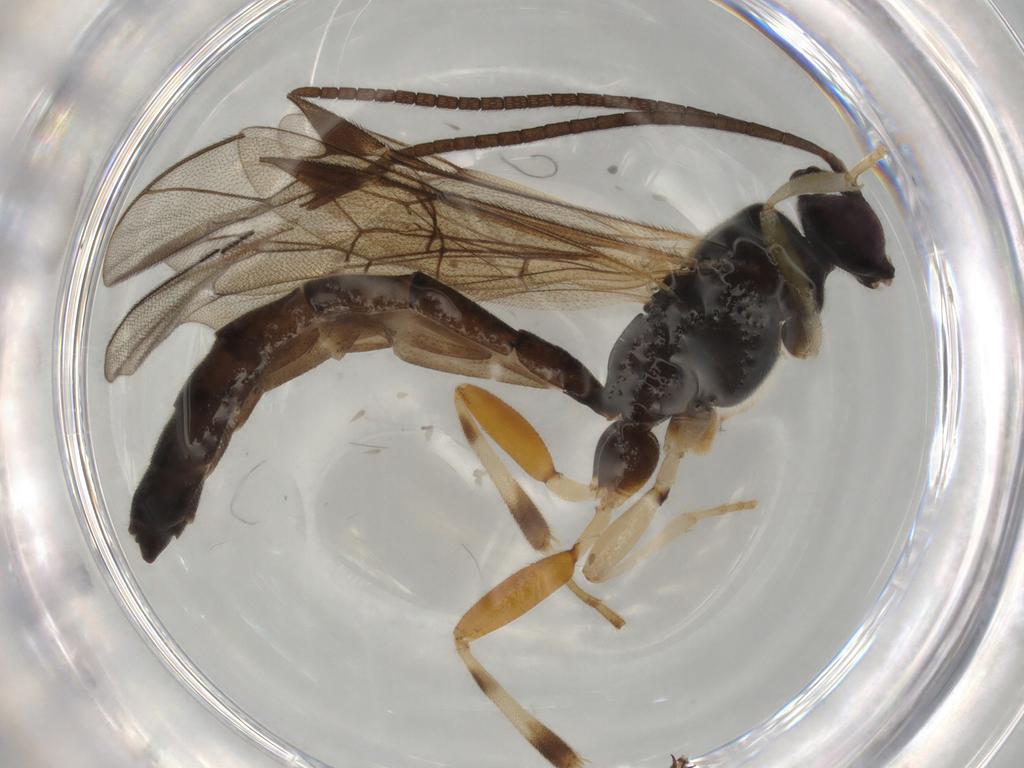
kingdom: Animalia
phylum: Arthropoda
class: Insecta
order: Hymenoptera
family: Ichneumonidae
